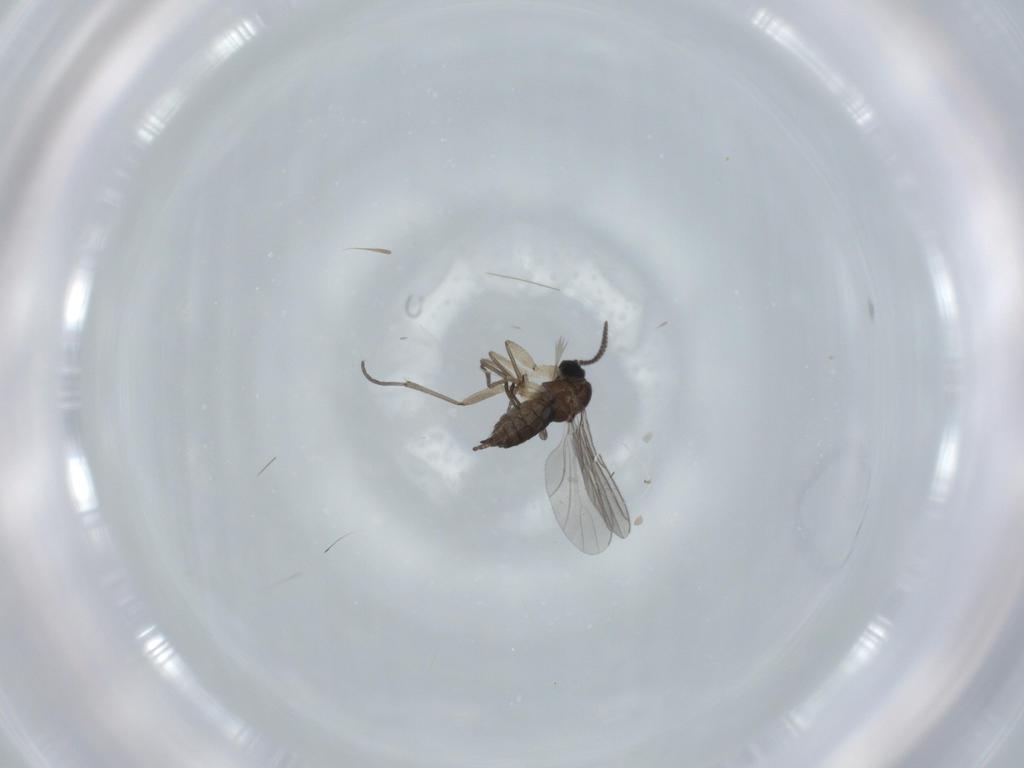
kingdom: Animalia
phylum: Arthropoda
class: Insecta
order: Diptera
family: Sciaridae
